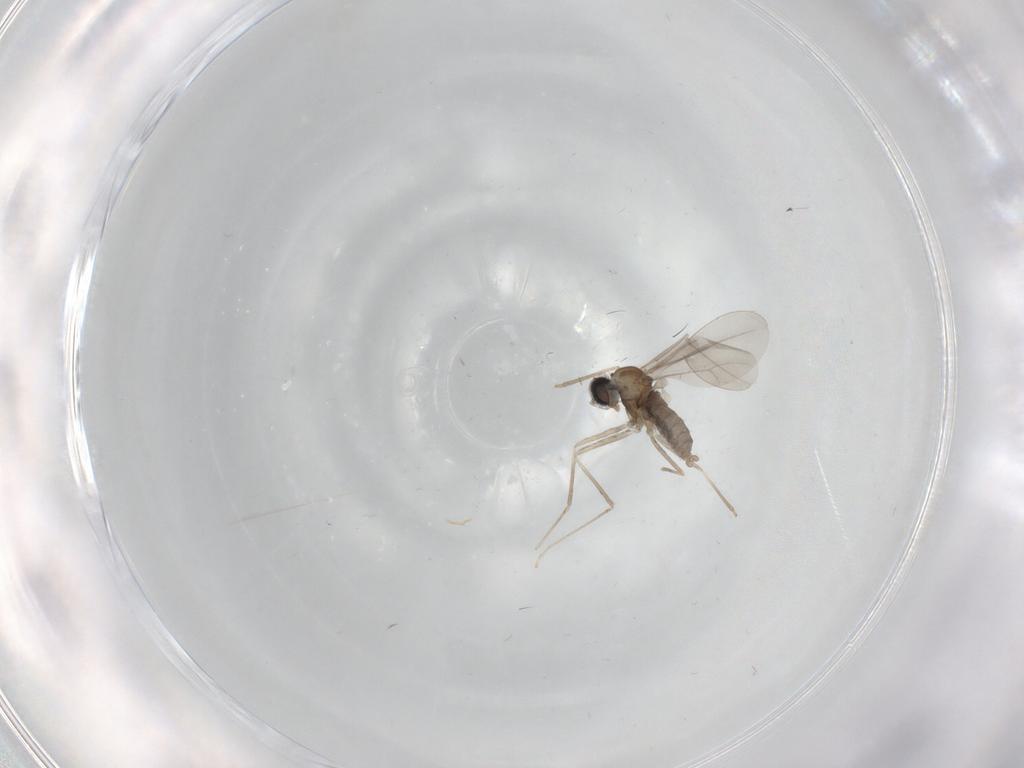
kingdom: Animalia
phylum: Arthropoda
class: Insecta
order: Diptera
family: Cecidomyiidae
